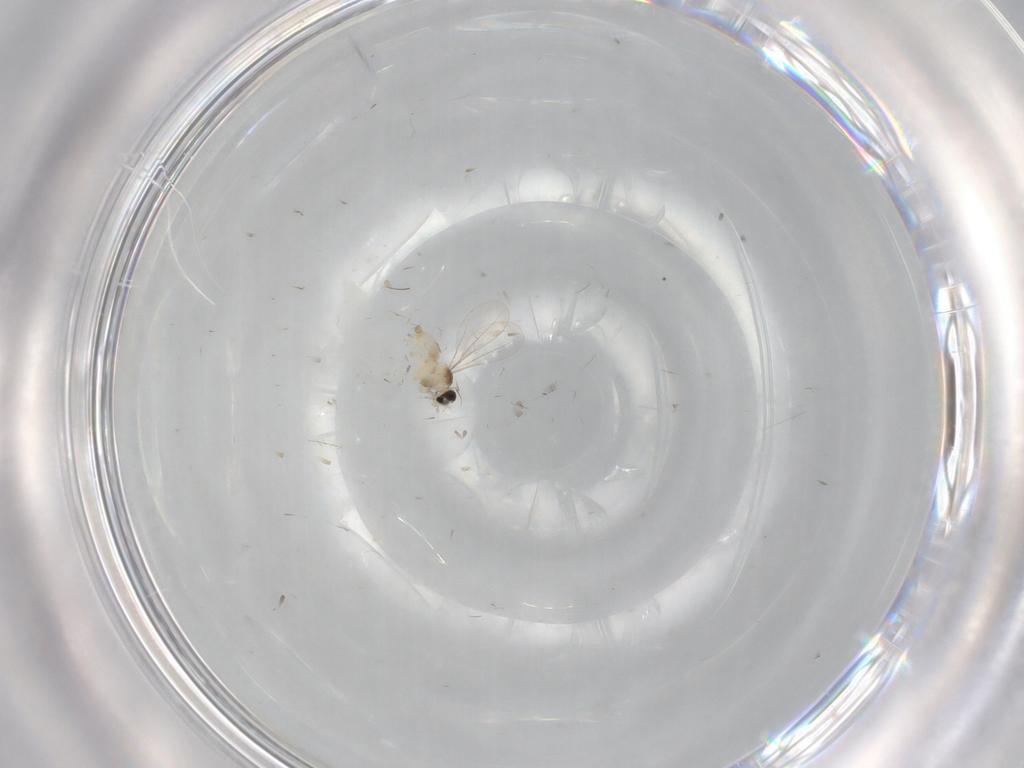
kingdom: Animalia
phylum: Arthropoda
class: Insecta
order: Diptera
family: Cecidomyiidae
